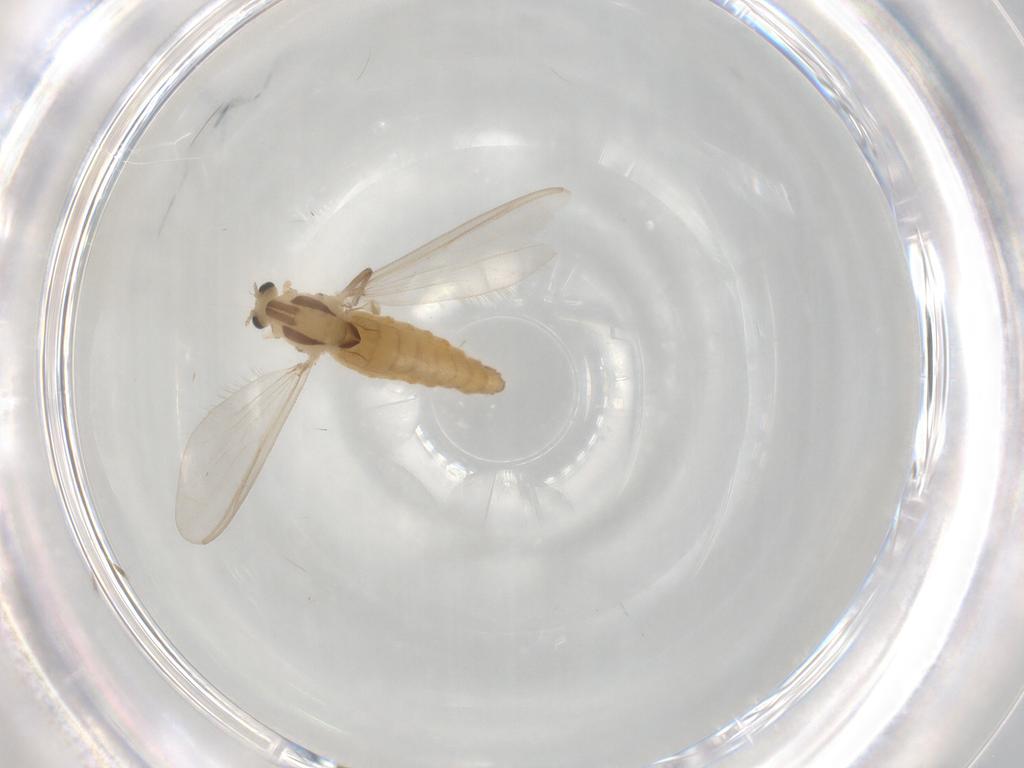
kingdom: Animalia
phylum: Arthropoda
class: Insecta
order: Diptera
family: Chironomidae
